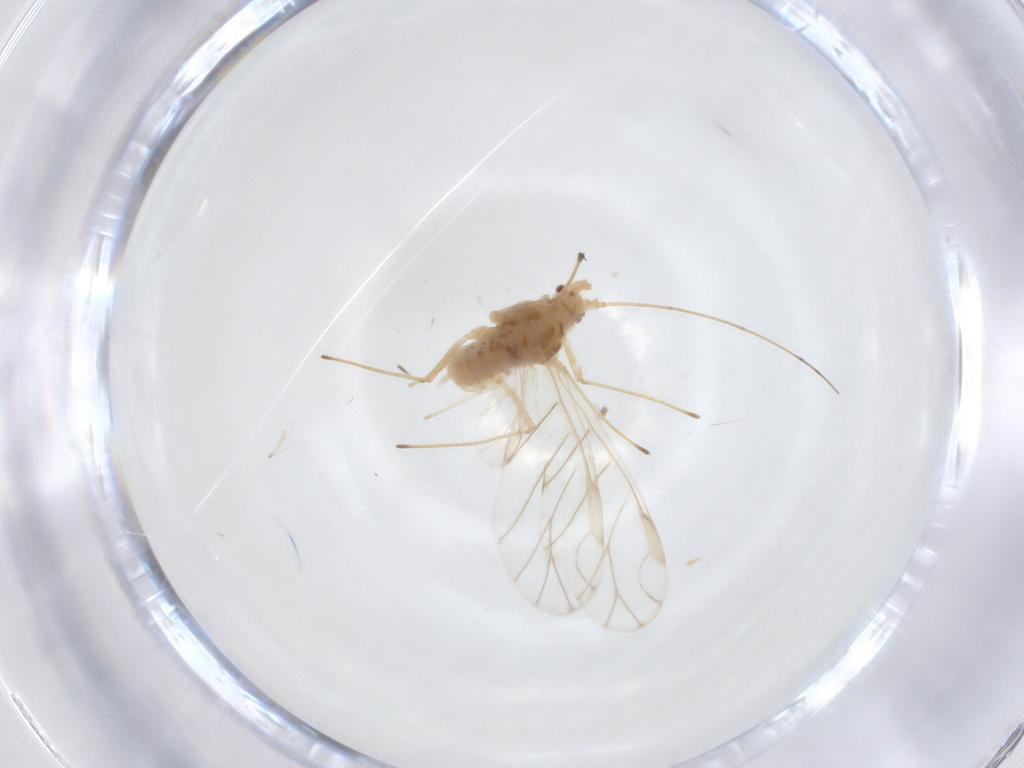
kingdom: Animalia
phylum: Arthropoda
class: Insecta
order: Hemiptera
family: Aphididae
